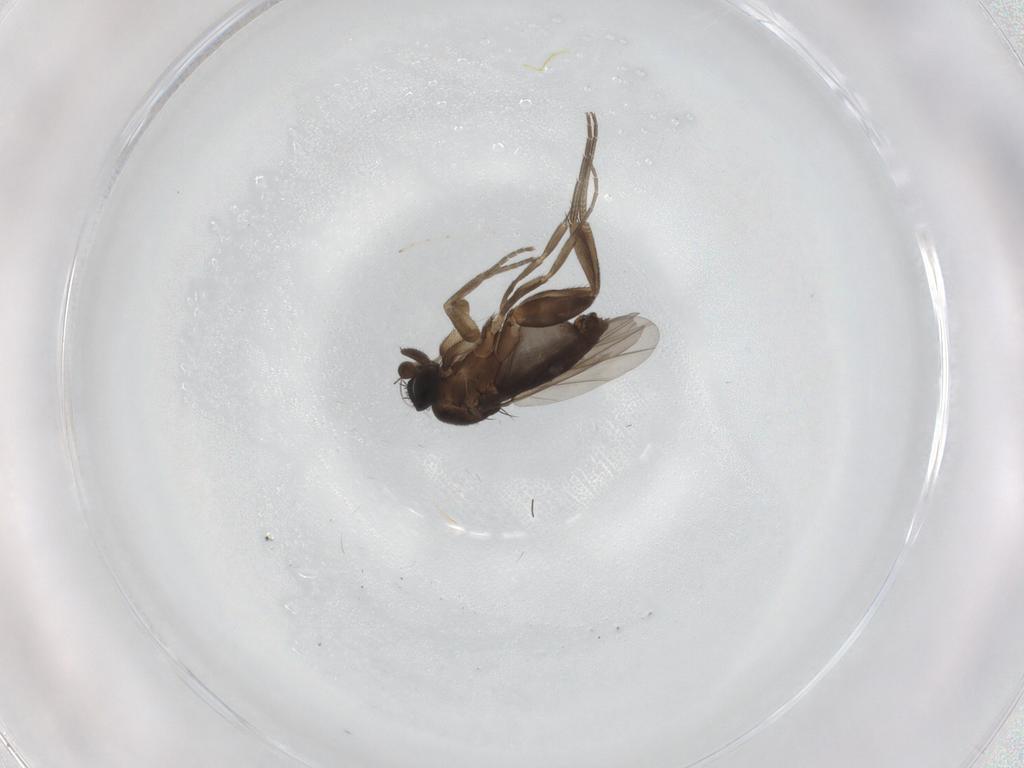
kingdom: Animalia
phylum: Arthropoda
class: Insecta
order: Diptera
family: Phoridae
